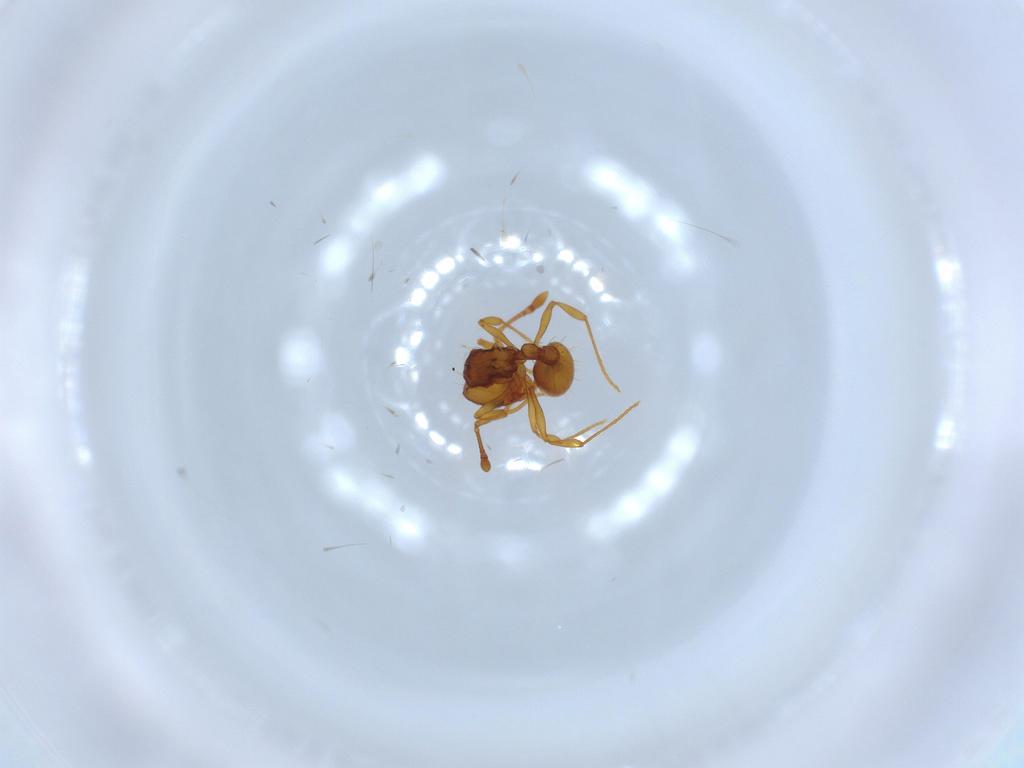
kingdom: Animalia
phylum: Arthropoda
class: Insecta
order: Hymenoptera
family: Formicidae
